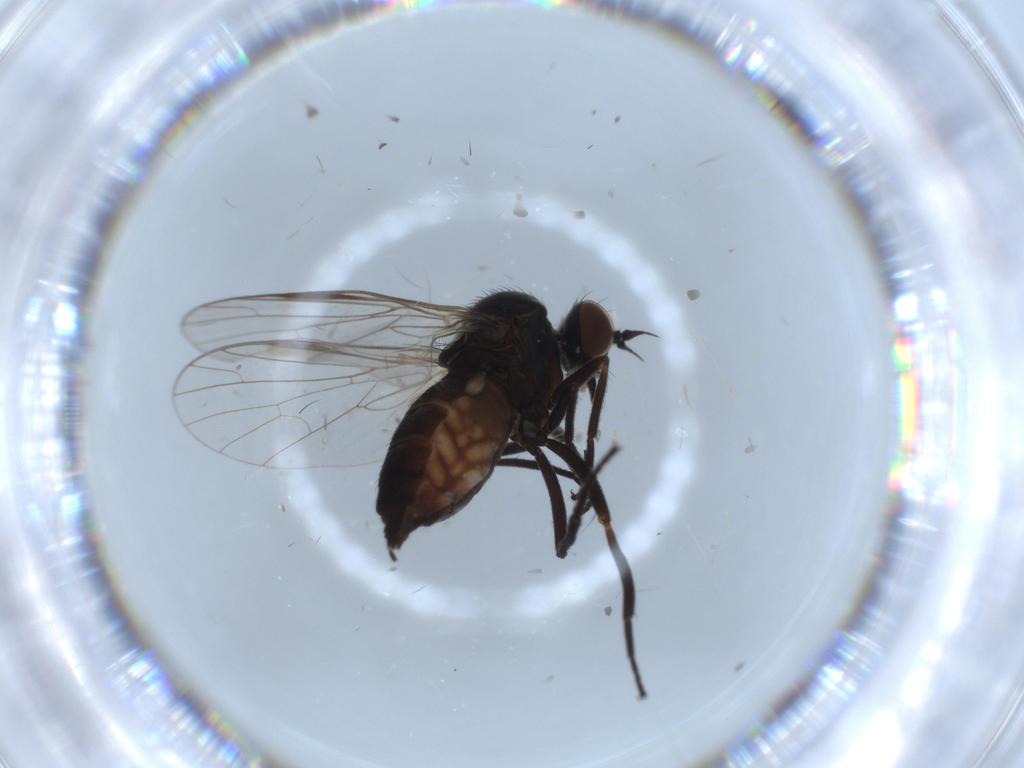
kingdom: Animalia
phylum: Arthropoda
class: Insecta
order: Diptera
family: Empididae
